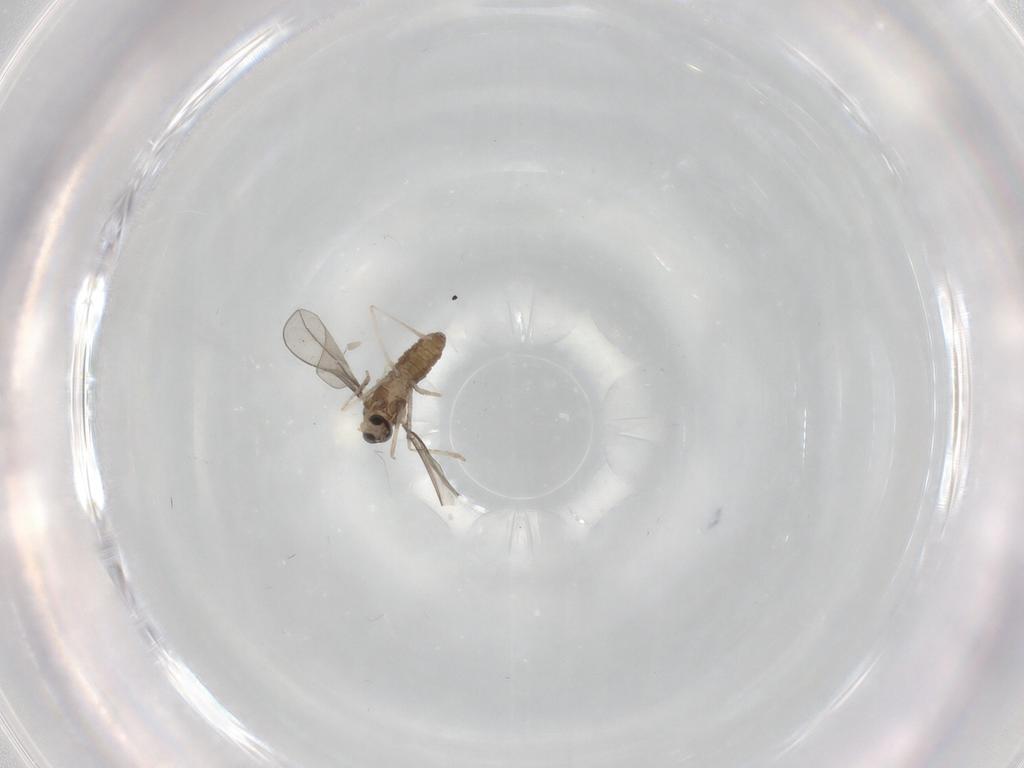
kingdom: Animalia
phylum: Arthropoda
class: Insecta
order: Diptera
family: Cecidomyiidae
